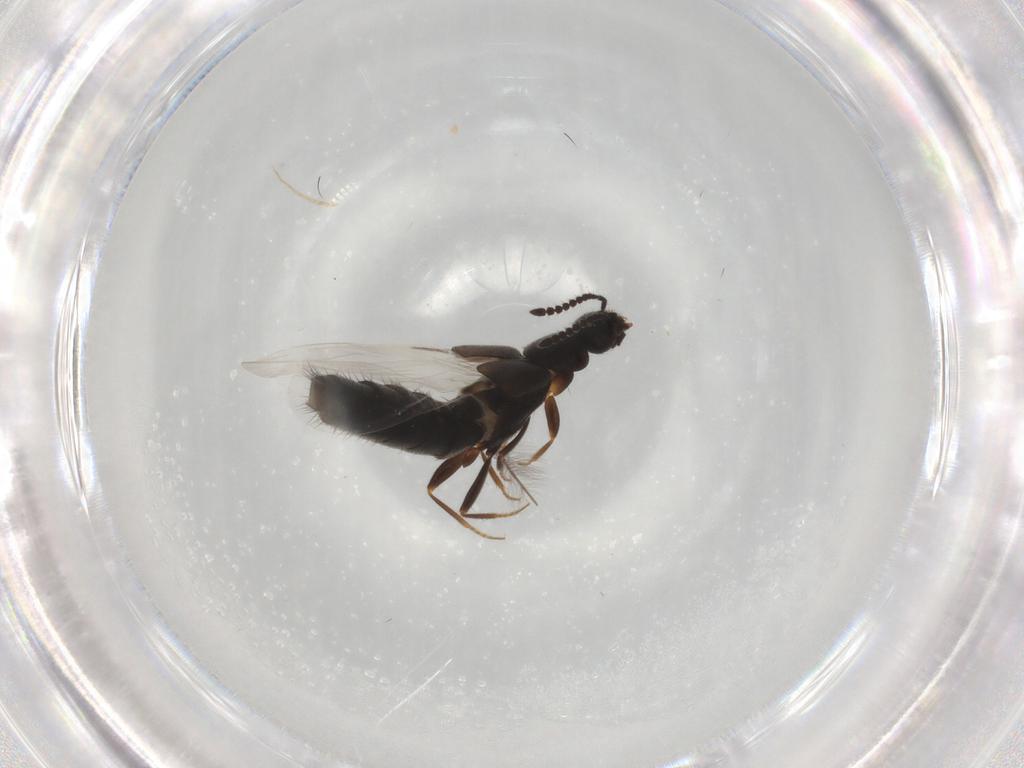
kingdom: Animalia
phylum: Arthropoda
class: Insecta
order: Coleoptera
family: Staphylinidae
